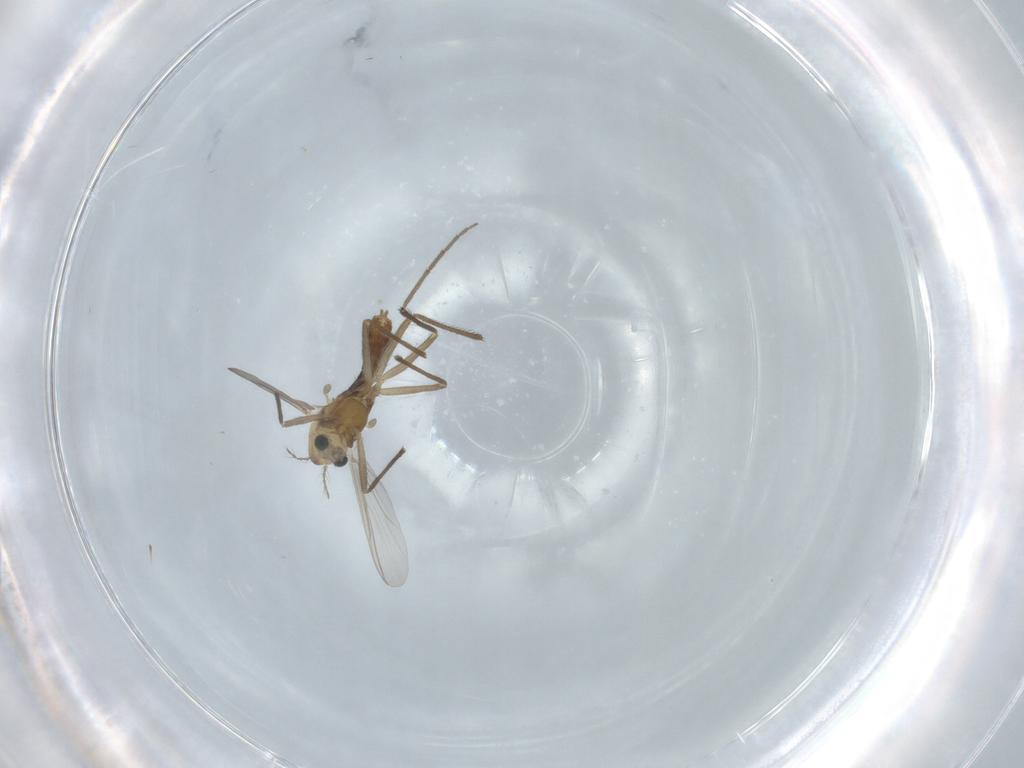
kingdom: Animalia
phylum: Arthropoda
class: Insecta
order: Diptera
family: Chironomidae
